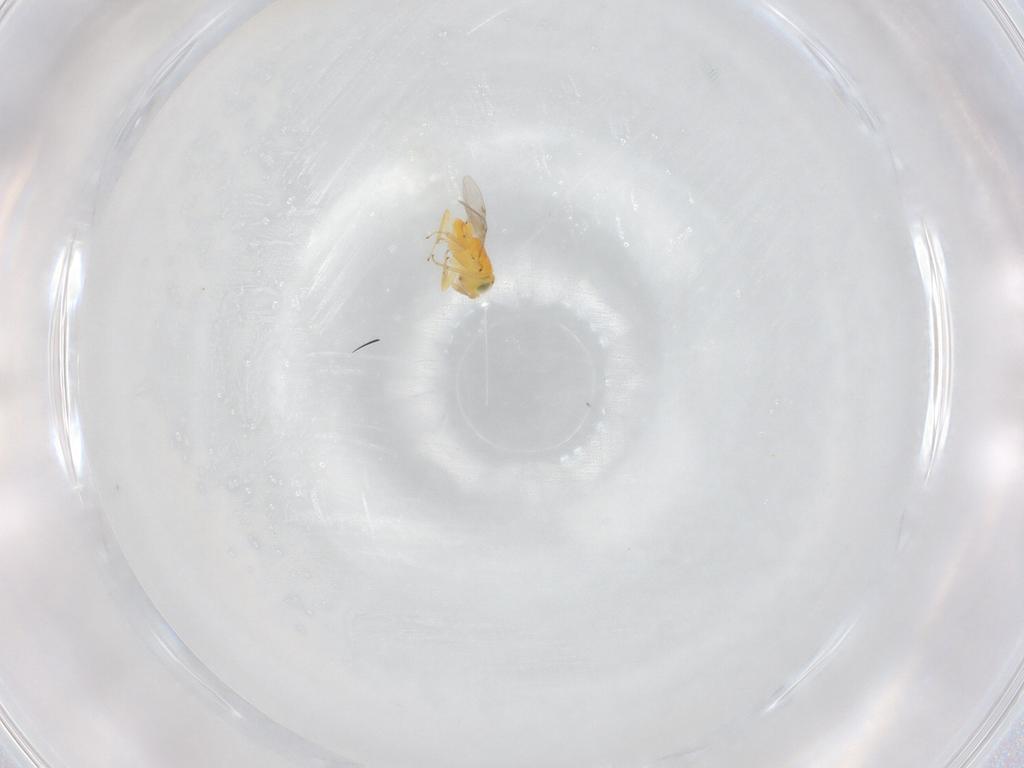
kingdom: Animalia
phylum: Arthropoda
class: Insecta
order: Hymenoptera
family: Encyrtidae
